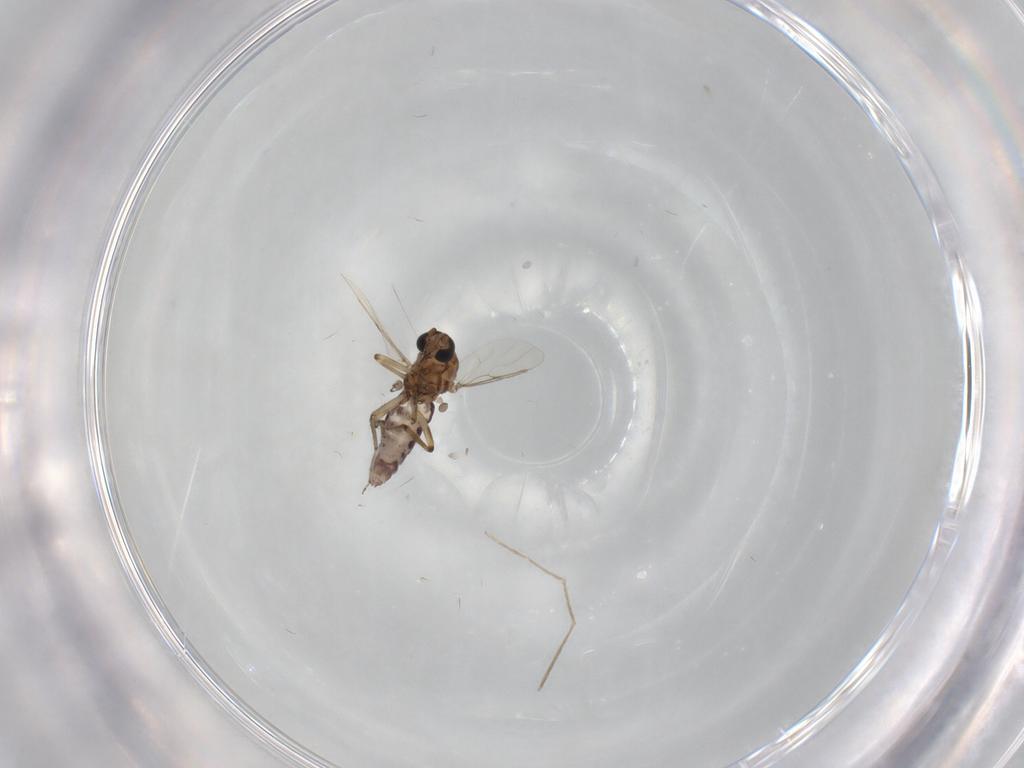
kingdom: Animalia
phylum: Arthropoda
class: Insecta
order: Diptera
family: Ceratopogonidae
